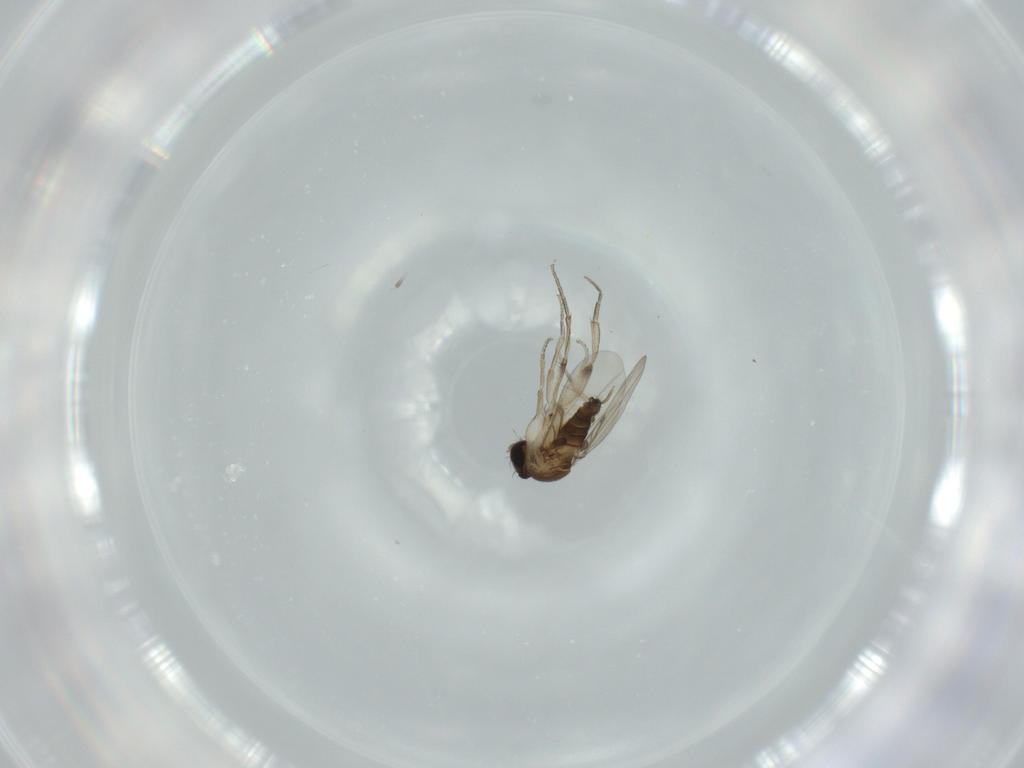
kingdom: Animalia
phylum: Arthropoda
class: Insecta
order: Diptera
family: Phoridae
